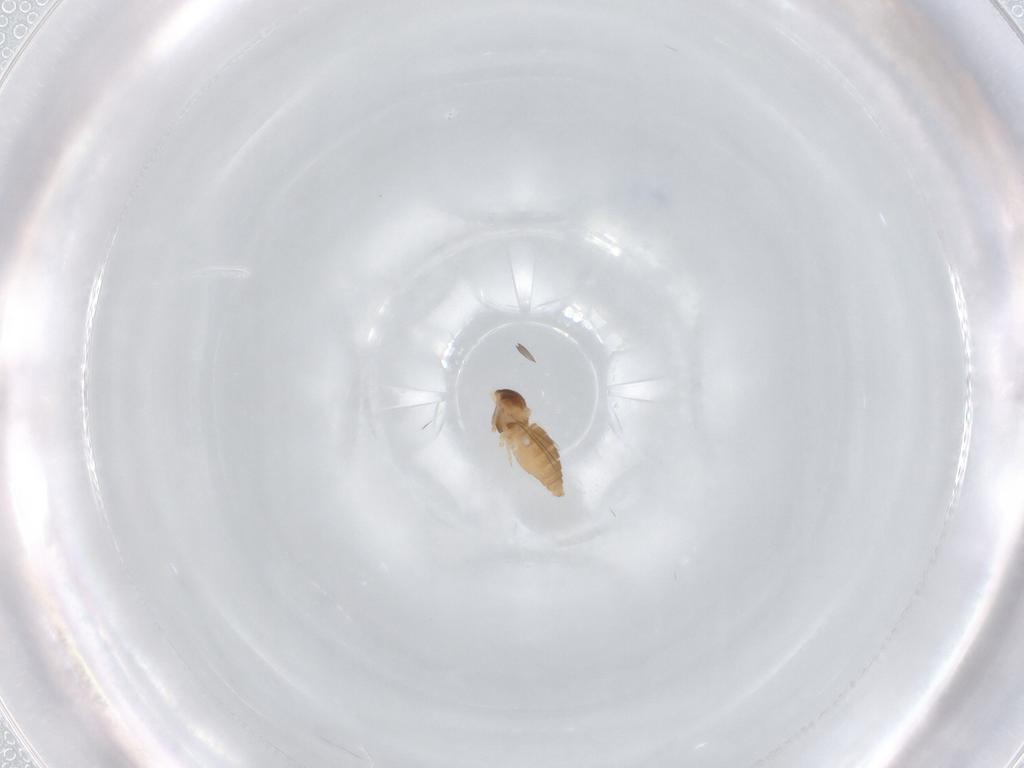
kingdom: Animalia
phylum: Arthropoda
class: Insecta
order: Diptera
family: Cecidomyiidae
